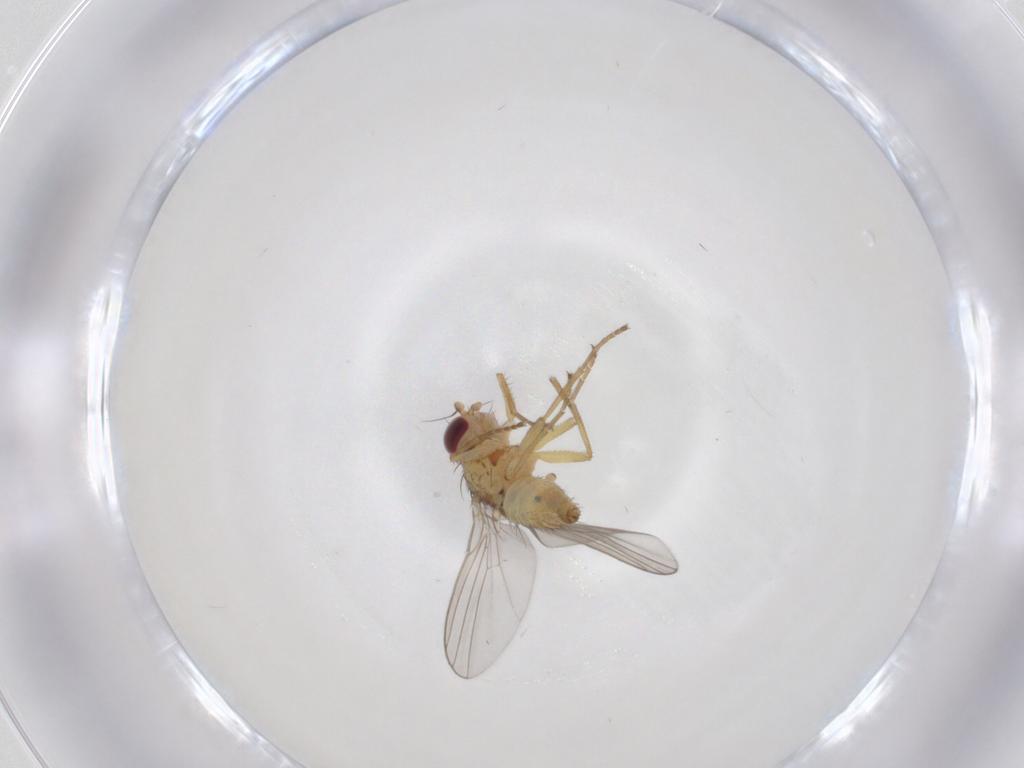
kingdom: Animalia
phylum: Arthropoda
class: Insecta
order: Diptera
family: Agromyzidae
